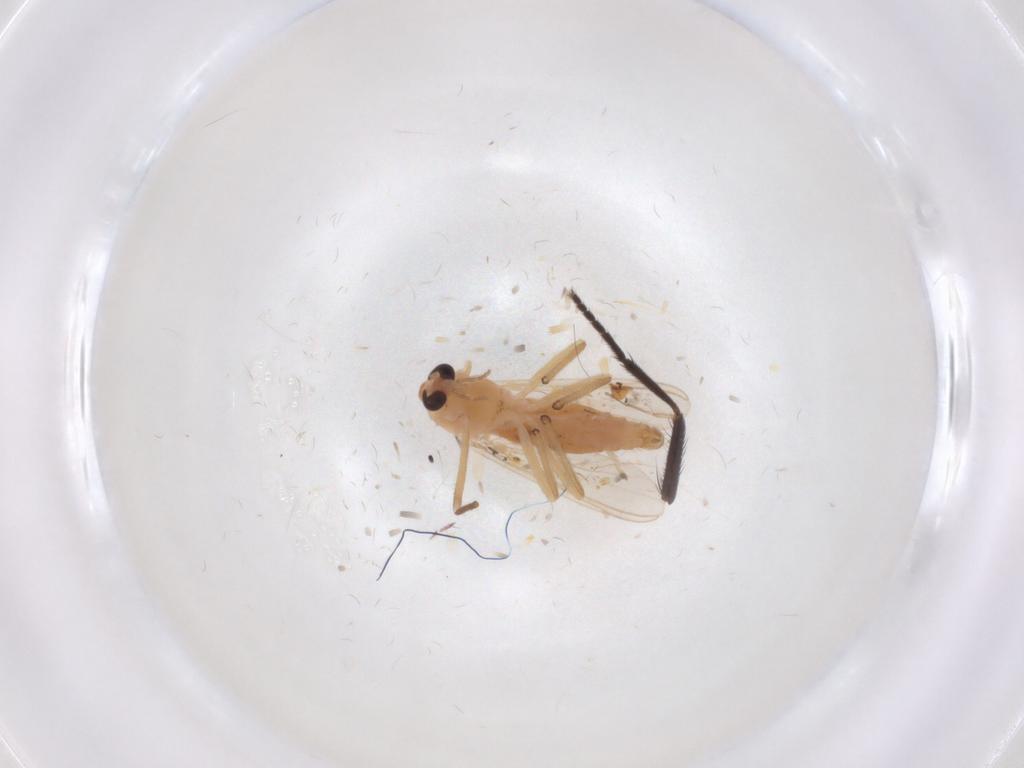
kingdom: Animalia
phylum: Arthropoda
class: Insecta
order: Diptera
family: Chironomidae
